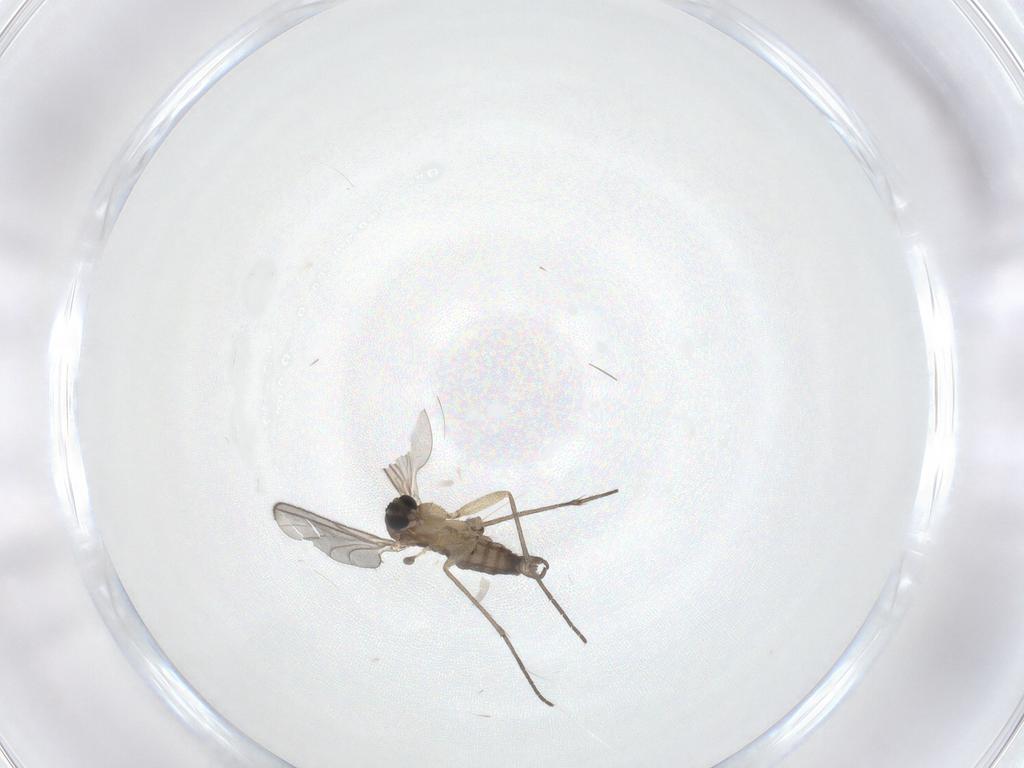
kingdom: Animalia
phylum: Arthropoda
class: Insecta
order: Diptera
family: Sciaridae
